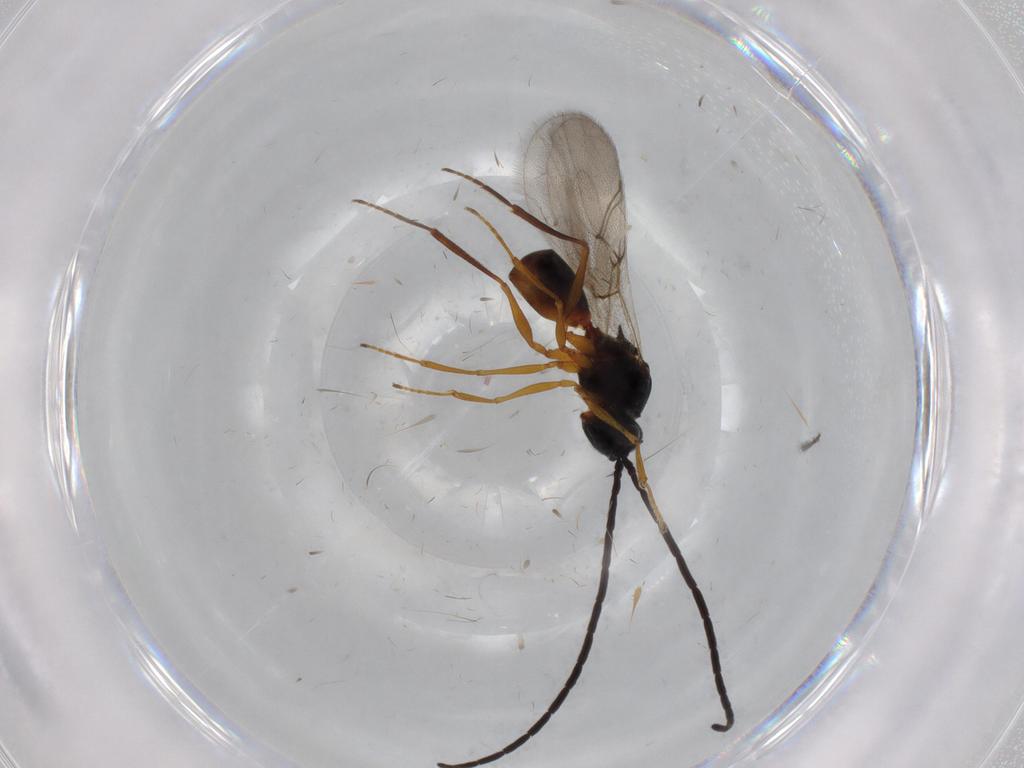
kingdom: Animalia
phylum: Arthropoda
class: Insecta
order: Hymenoptera
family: Figitidae
